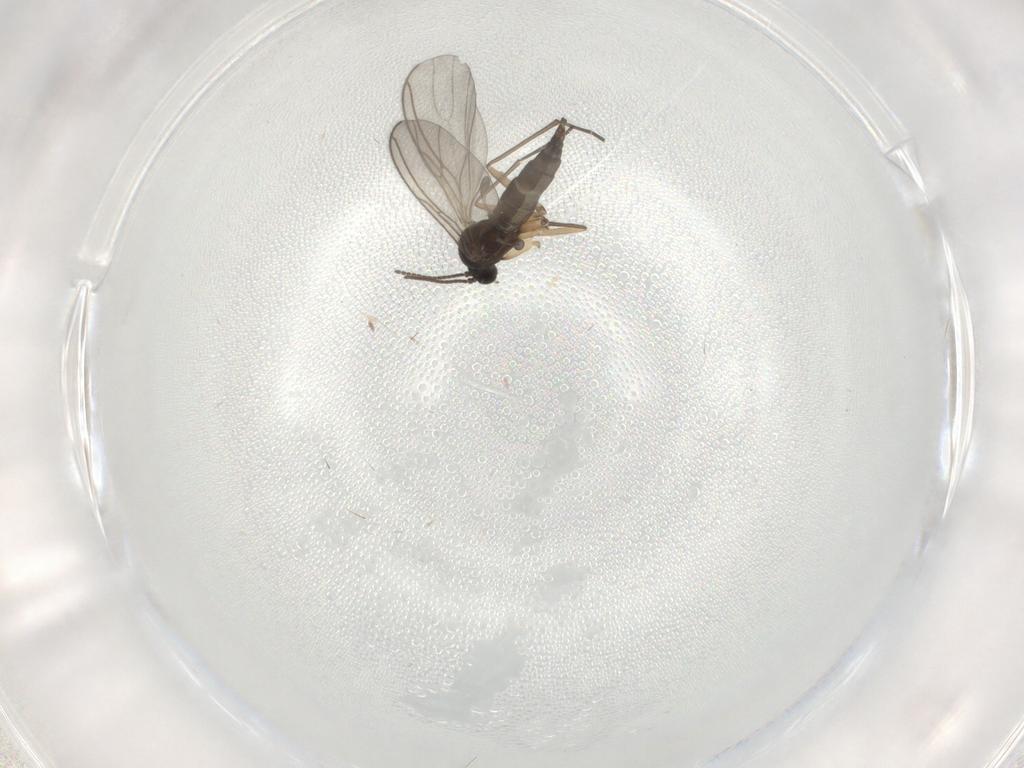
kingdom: Animalia
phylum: Arthropoda
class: Insecta
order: Diptera
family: Sciaridae
